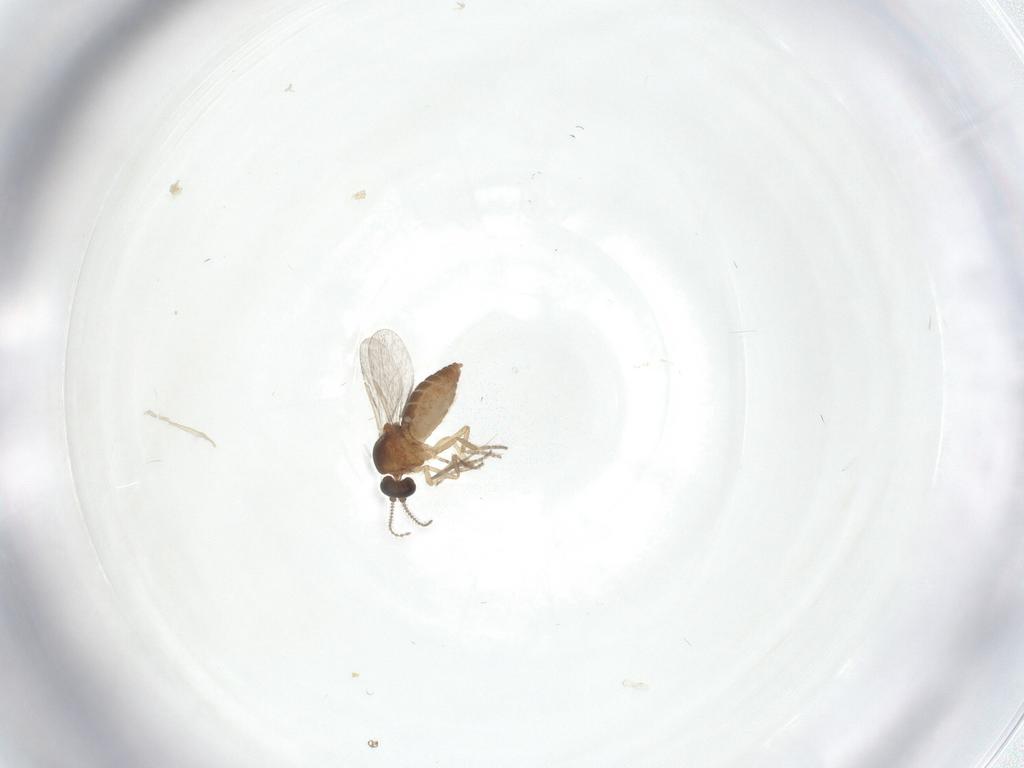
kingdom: Animalia
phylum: Arthropoda
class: Insecta
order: Diptera
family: Ceratopogonidae
